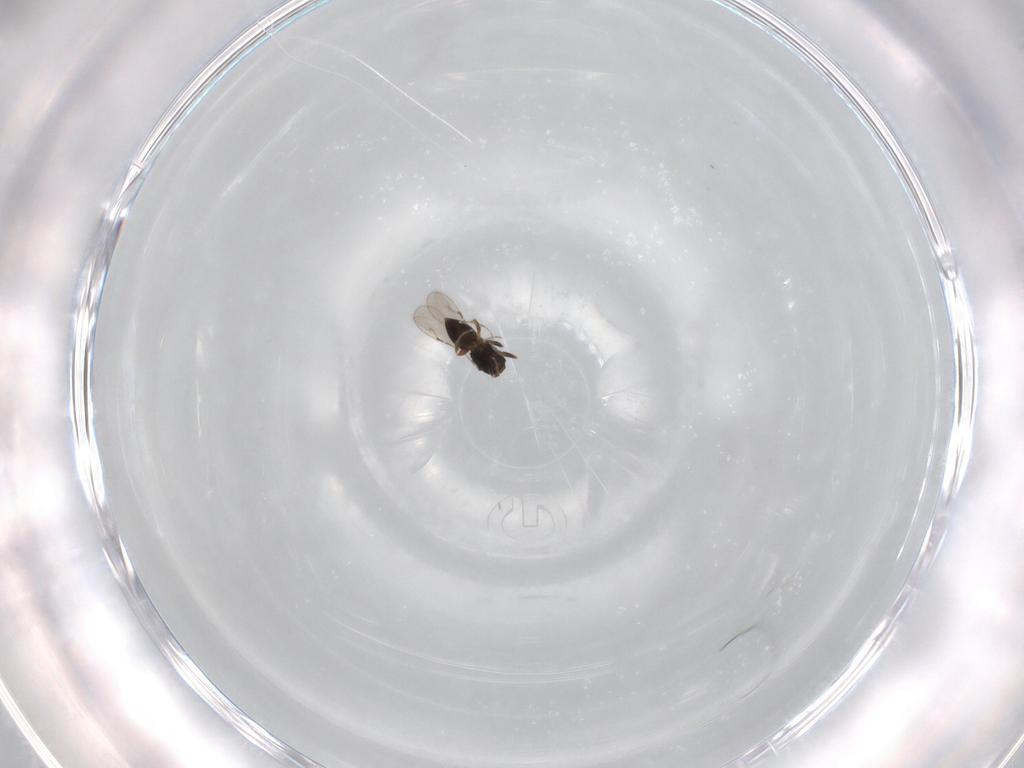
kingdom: Animalia
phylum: Arthropoda
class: Insecta
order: Hymenoptera
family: Ceraphronidae
